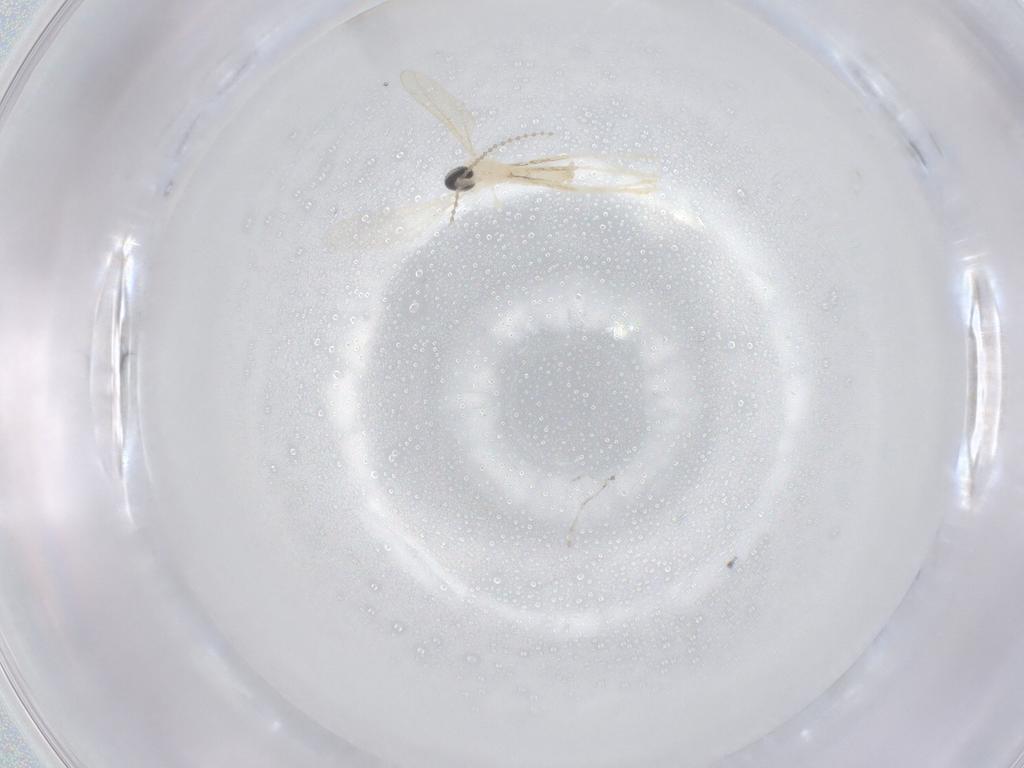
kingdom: Animalia
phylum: Arthropoda
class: Insecta
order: Diptera
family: Cecidomyiidae
